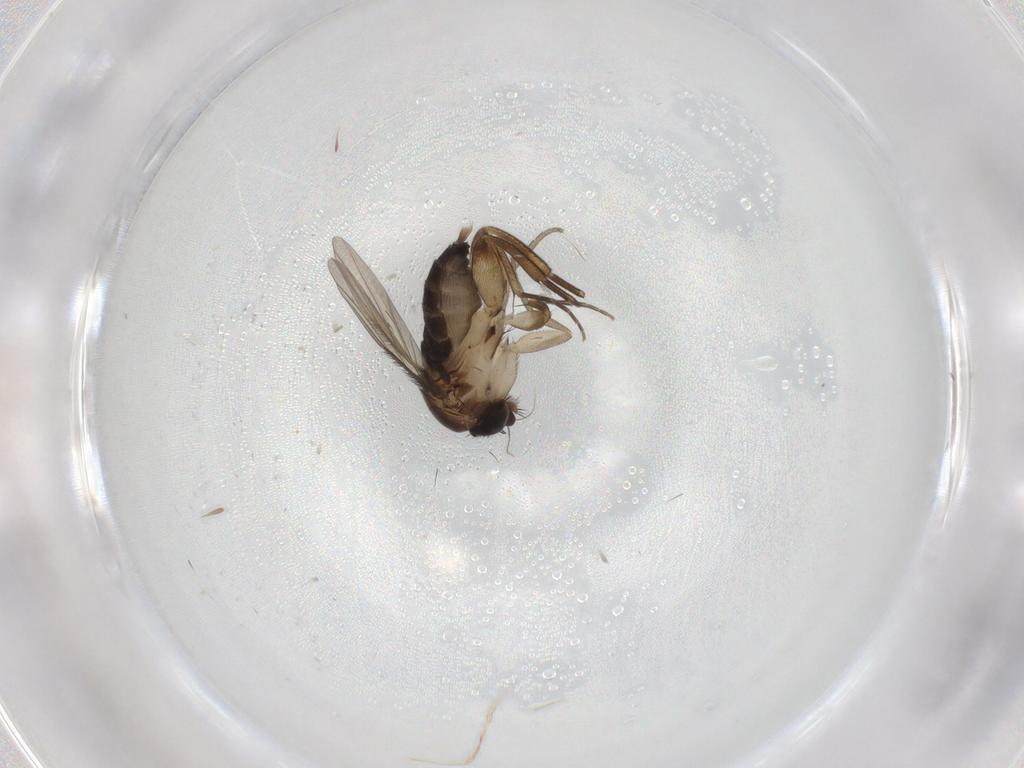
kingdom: Animalia
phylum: Arthropoda
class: Insecta
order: Diptera
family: Phoridae
